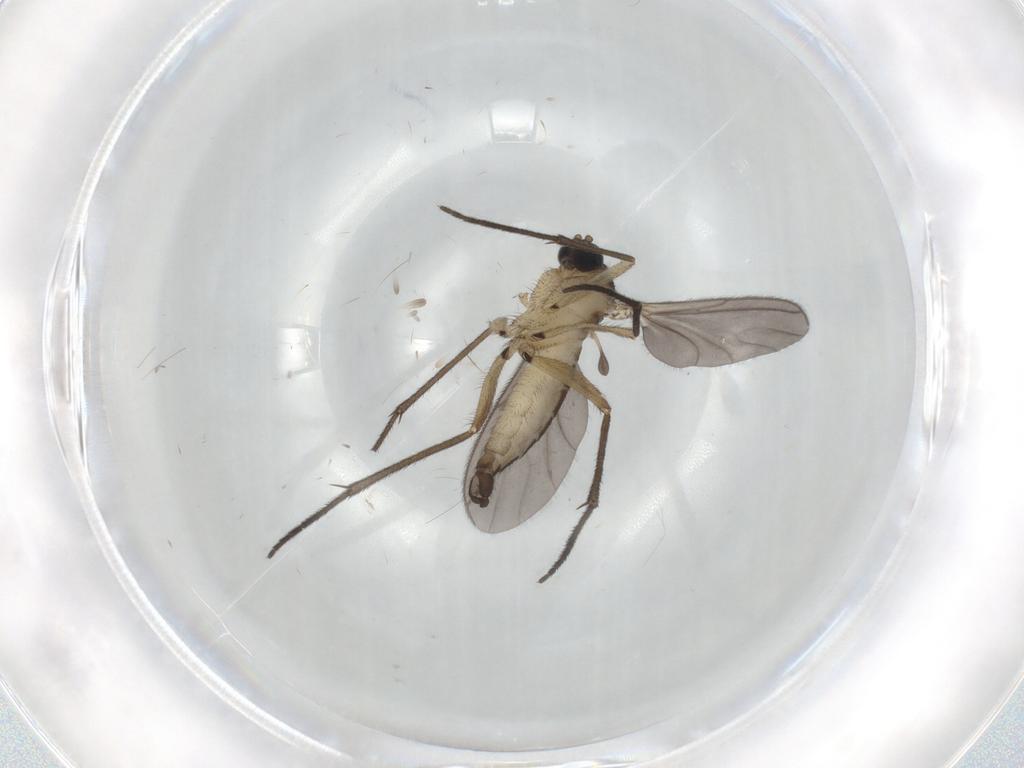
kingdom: Animalia
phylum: Arthropoda
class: Insecta
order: Diptera
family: Sciaridae
